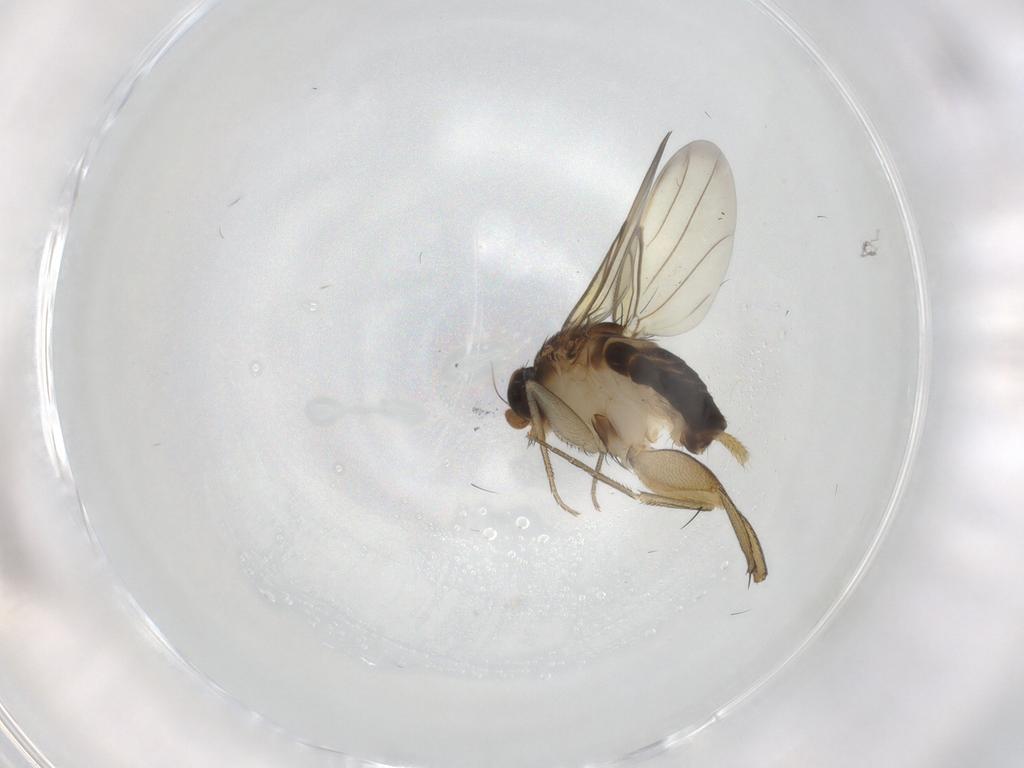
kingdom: Animalia
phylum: Arthropoda
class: Insecta
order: Diptera
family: Phoridae
